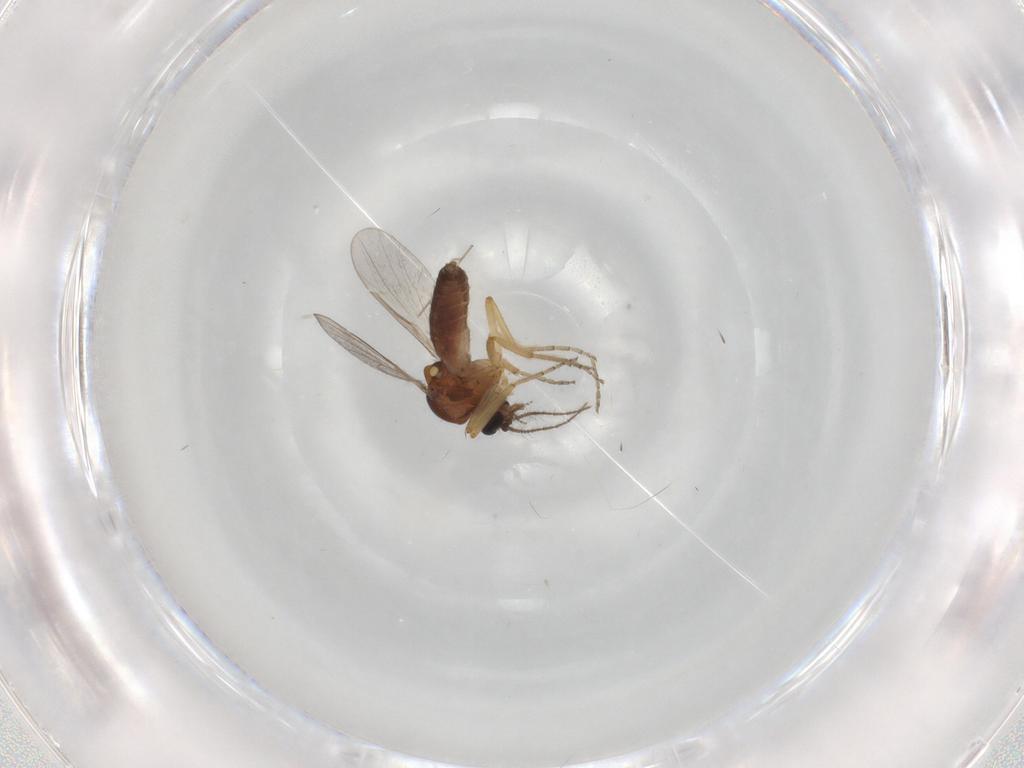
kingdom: Animalia
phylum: Arthropoda
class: Insecta
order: Diptera
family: Ceratopogonidae
